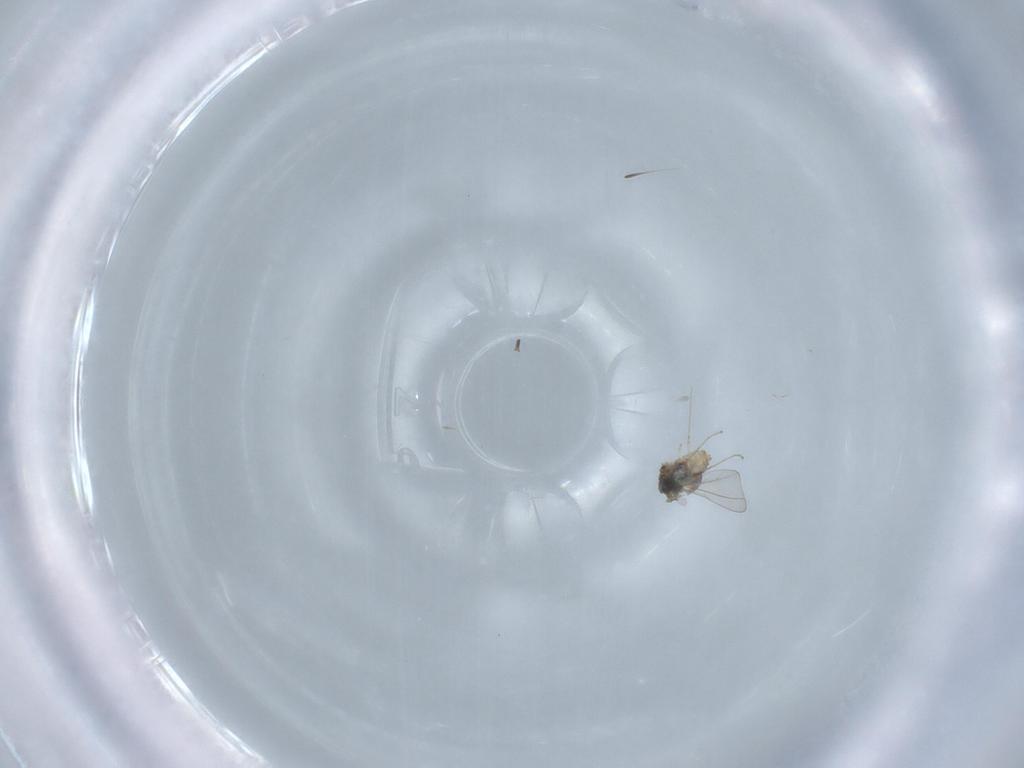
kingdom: Animalia
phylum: Arthropoda
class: Insecta
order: Diptera
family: Cecidomyiidae
